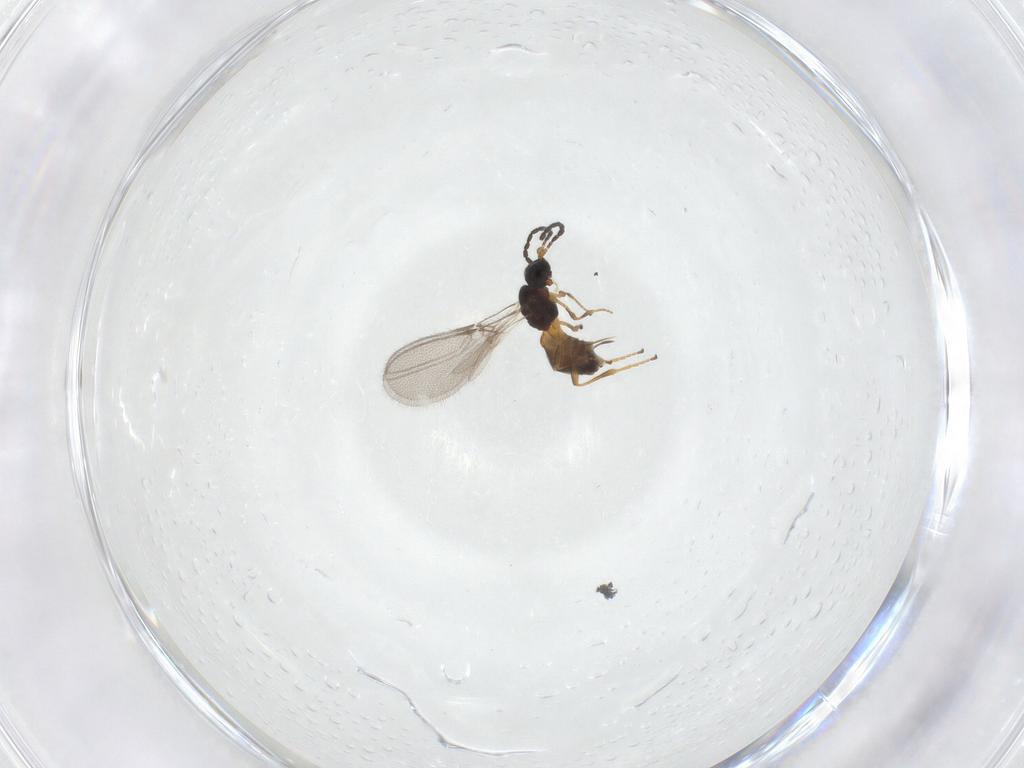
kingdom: Animalia
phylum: Arthropoda
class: Insecta
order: Hymenoptera
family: Braconidae
